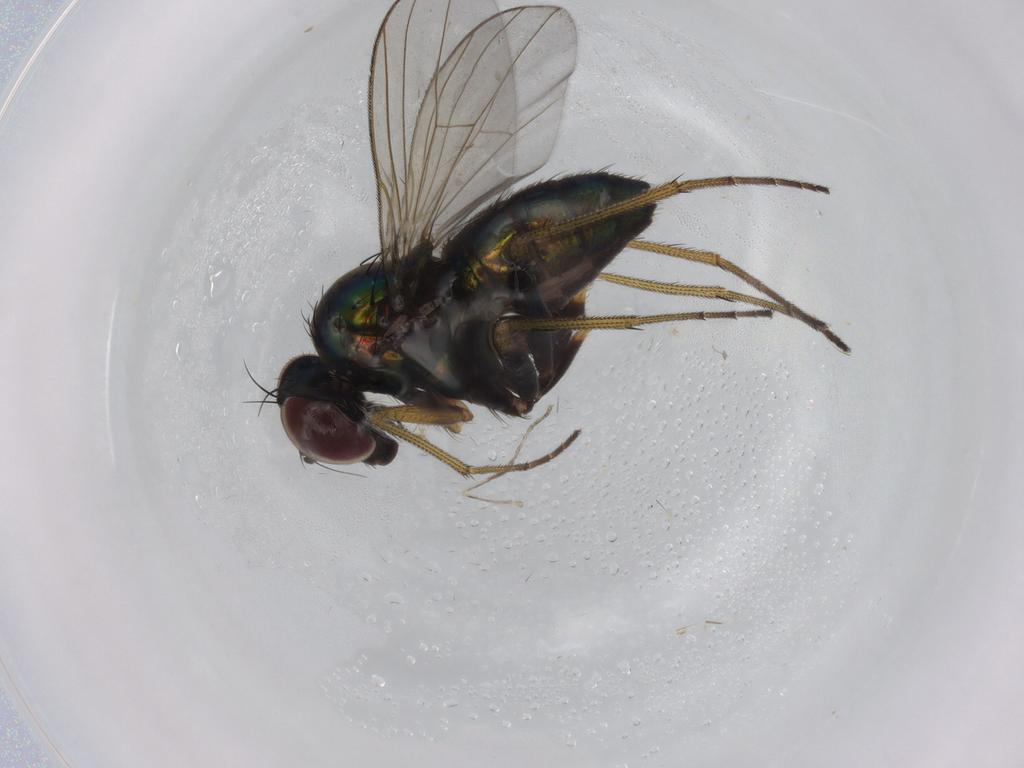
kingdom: Animalia
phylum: Arthropoda
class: Insecta
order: Diptera
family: Dolichopodidae
